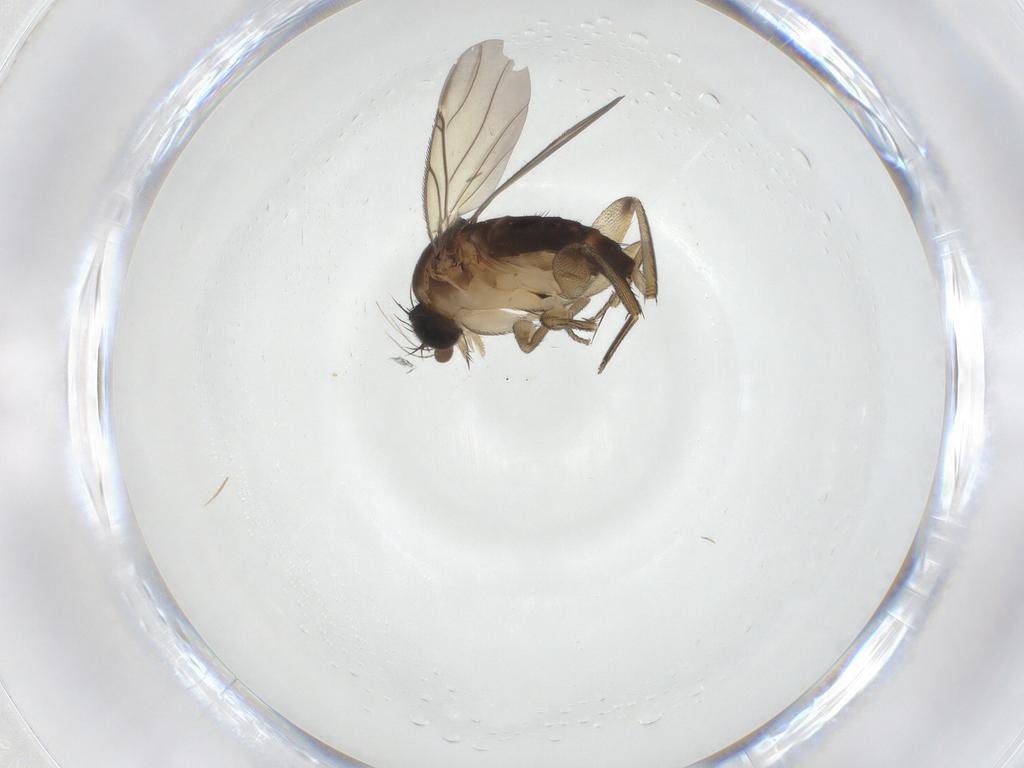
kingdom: Animalia
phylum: Arthropoda
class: Insecta
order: Diptera
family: Phoridae
